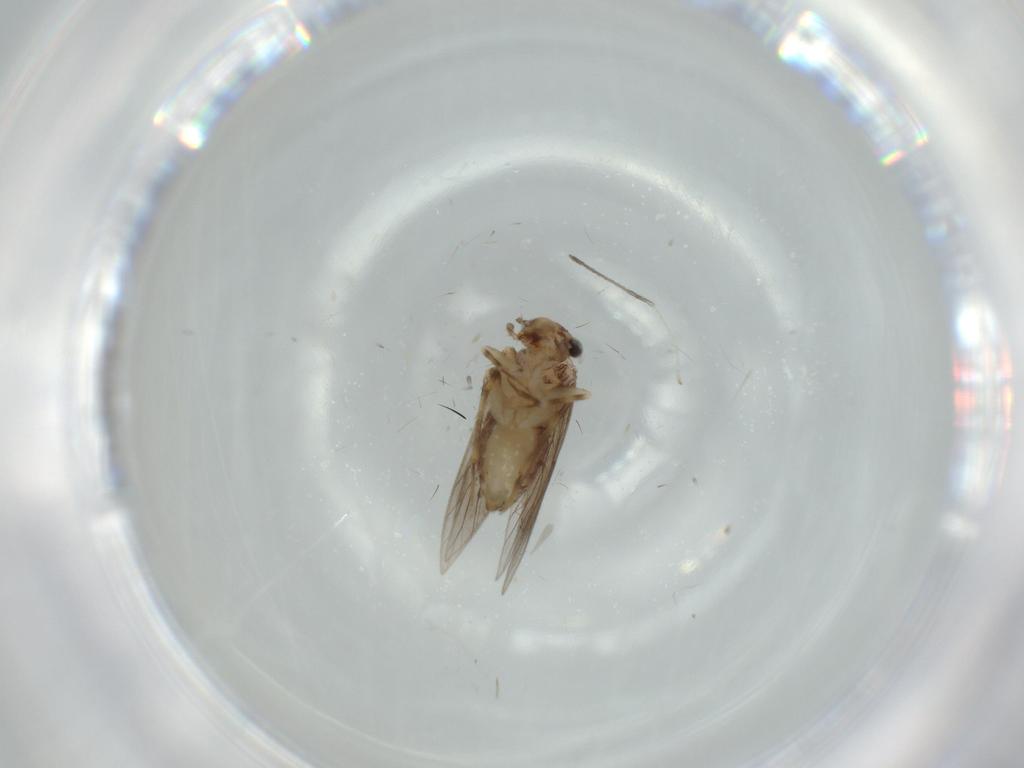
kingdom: Animalia
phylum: Arthropoda
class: Insecta
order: Psocodea
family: Lepidopsocidae
